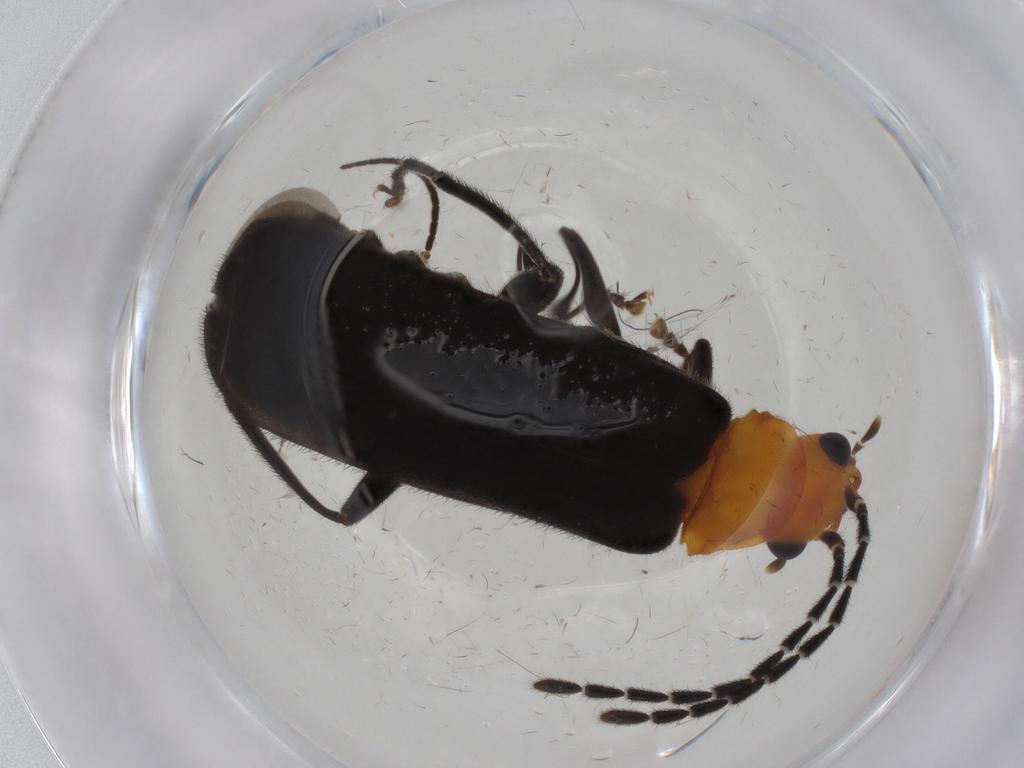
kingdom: Animalia
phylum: Arthropoda
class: Insecta
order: Coleoptera
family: Cantharidae
